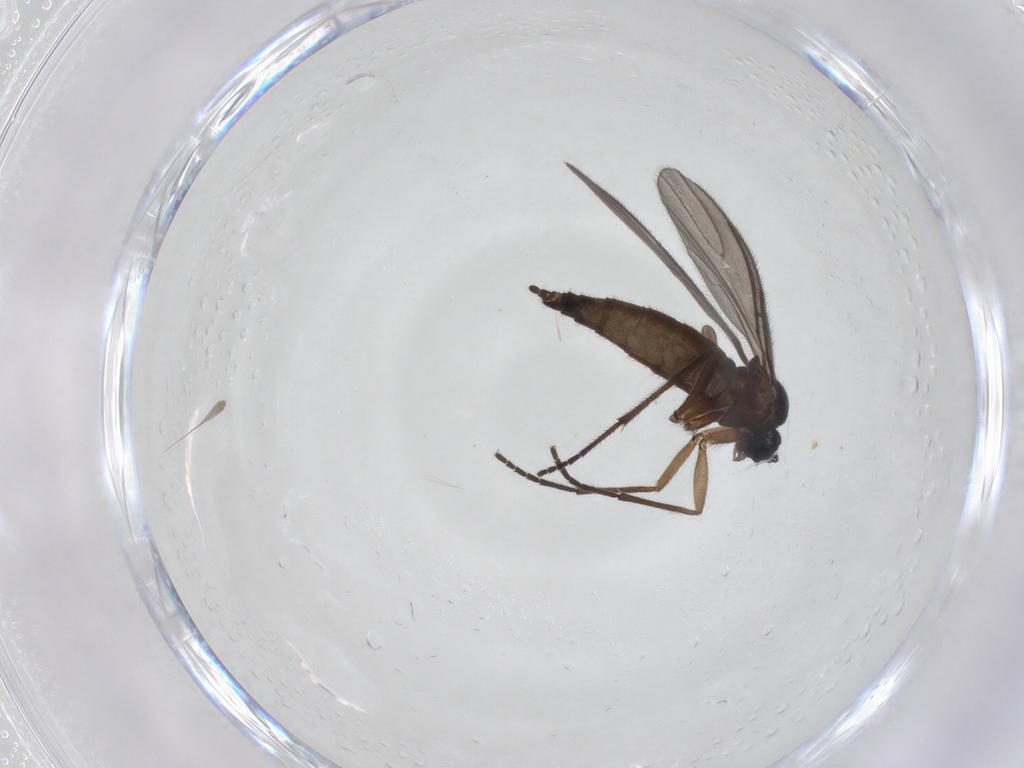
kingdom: Animalia
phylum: Arthropoda
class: Insecta
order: Diptera
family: Sciaridae
